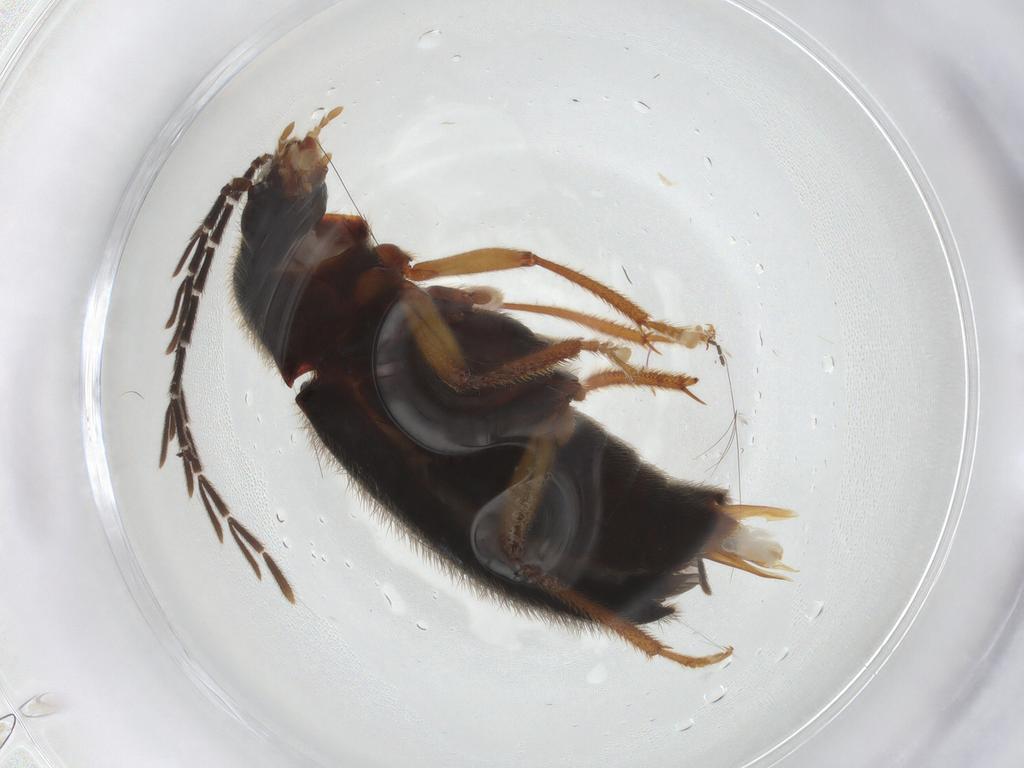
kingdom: Animalia
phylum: Arthropoda
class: Insecta
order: Coleoptera
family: Ptilodactylidae
